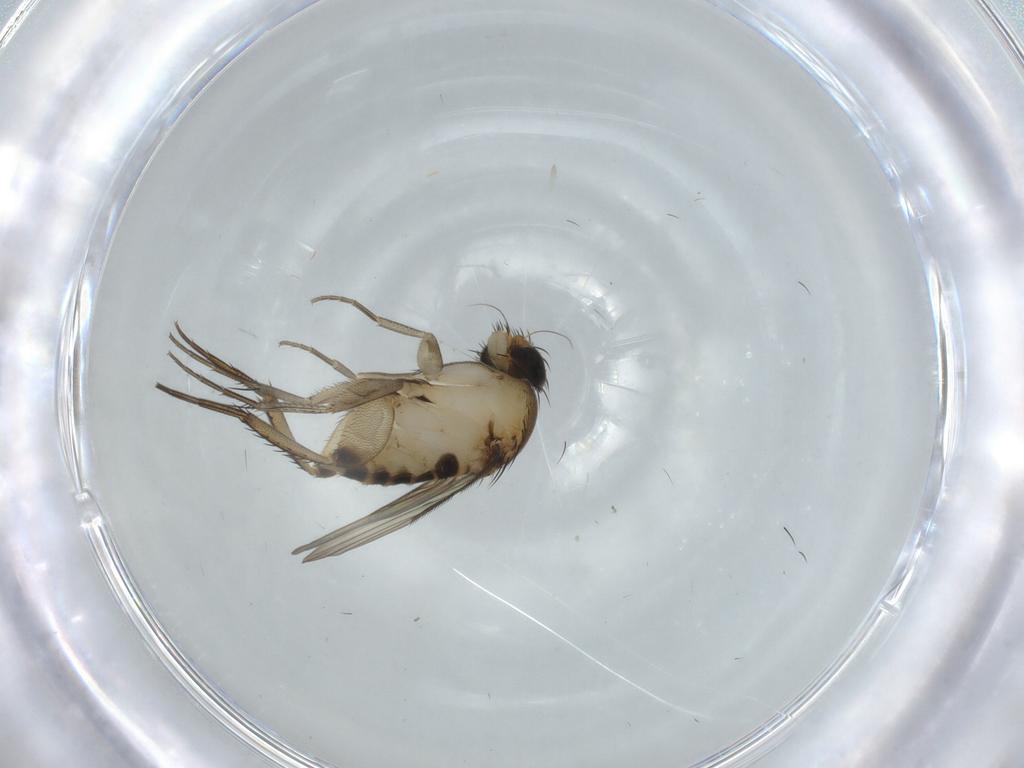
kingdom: Animalia
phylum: Arthropoda
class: Insecta
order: Diptera
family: Phoridae
